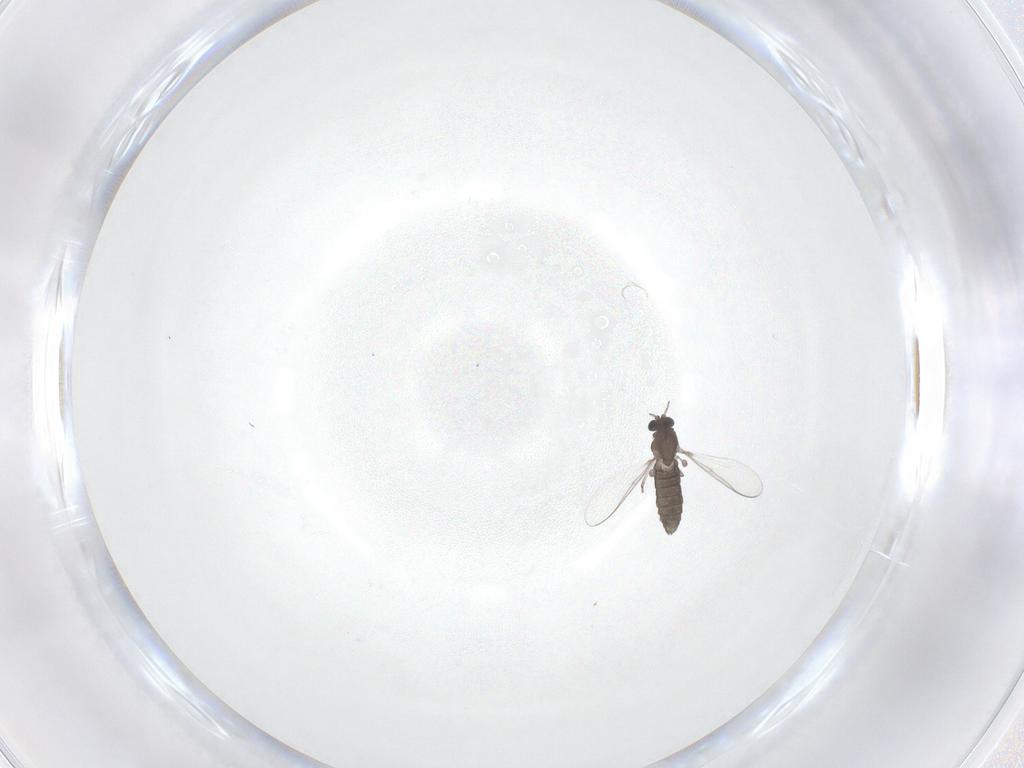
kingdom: Animalia
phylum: Arthropoda
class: Insecta
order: Diptera
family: Chironomidae
